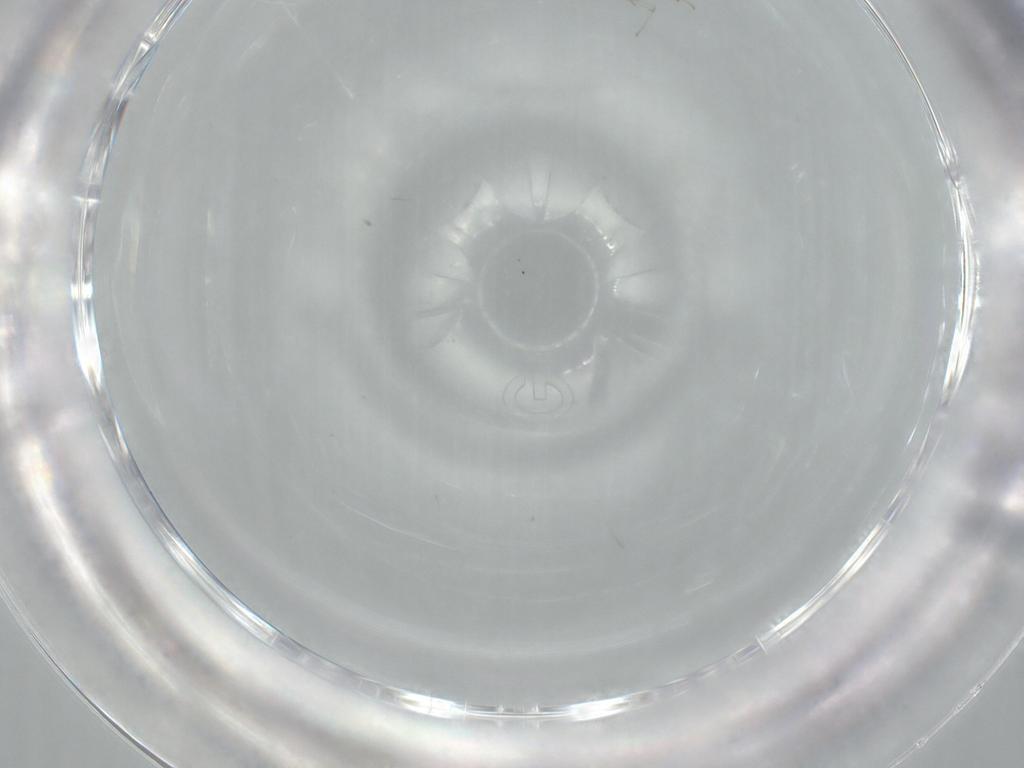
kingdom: Animalia
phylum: Arthropoda
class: Insecta
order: Diptera
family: Cecidomyiidae
